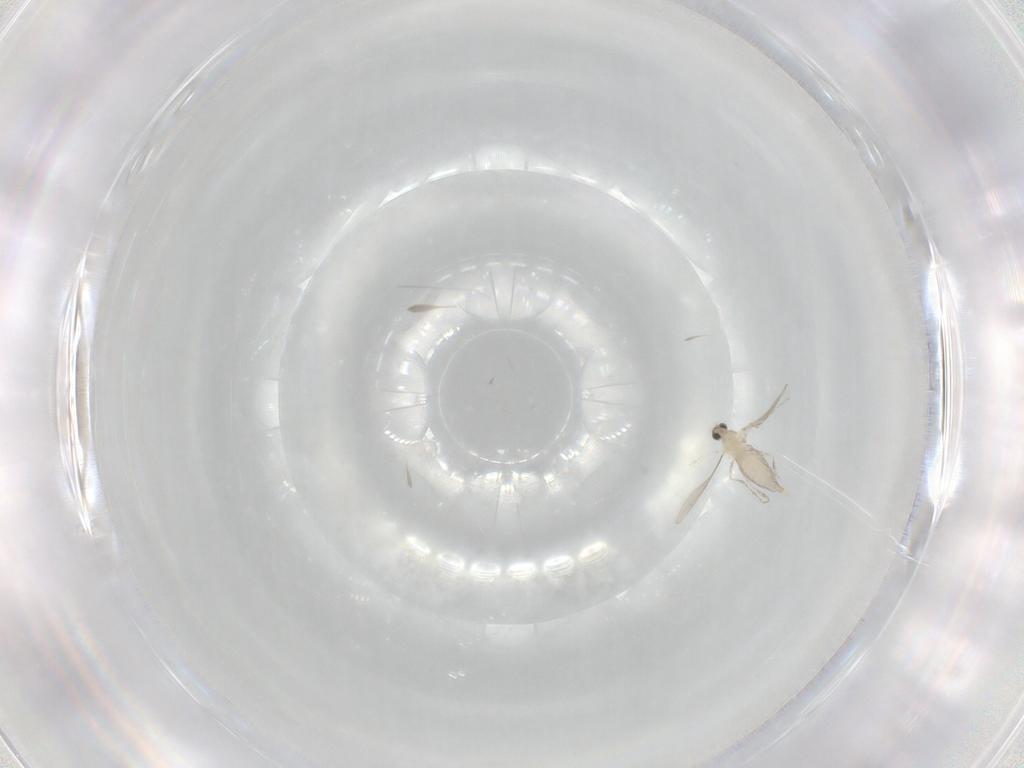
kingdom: Animalia
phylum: Arthropoda
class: Insecta
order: Diptera
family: Cecidomyiidae
